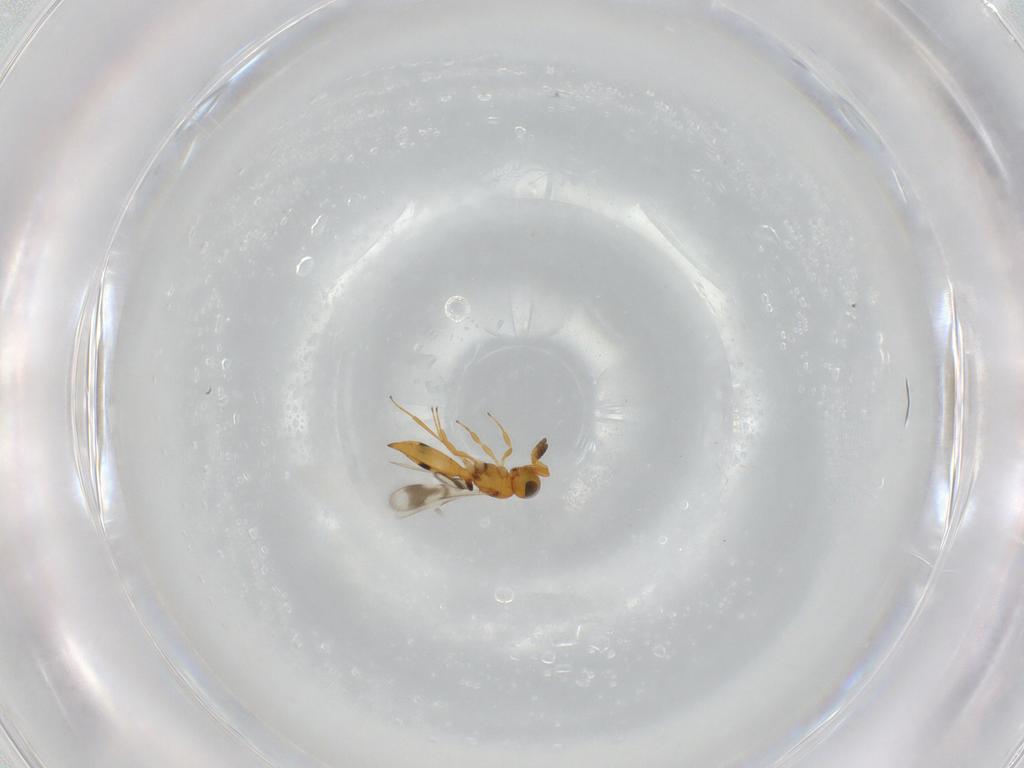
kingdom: Animalia
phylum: Arthropoda
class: Insecta
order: Hymenoptera
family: Scelionidae
